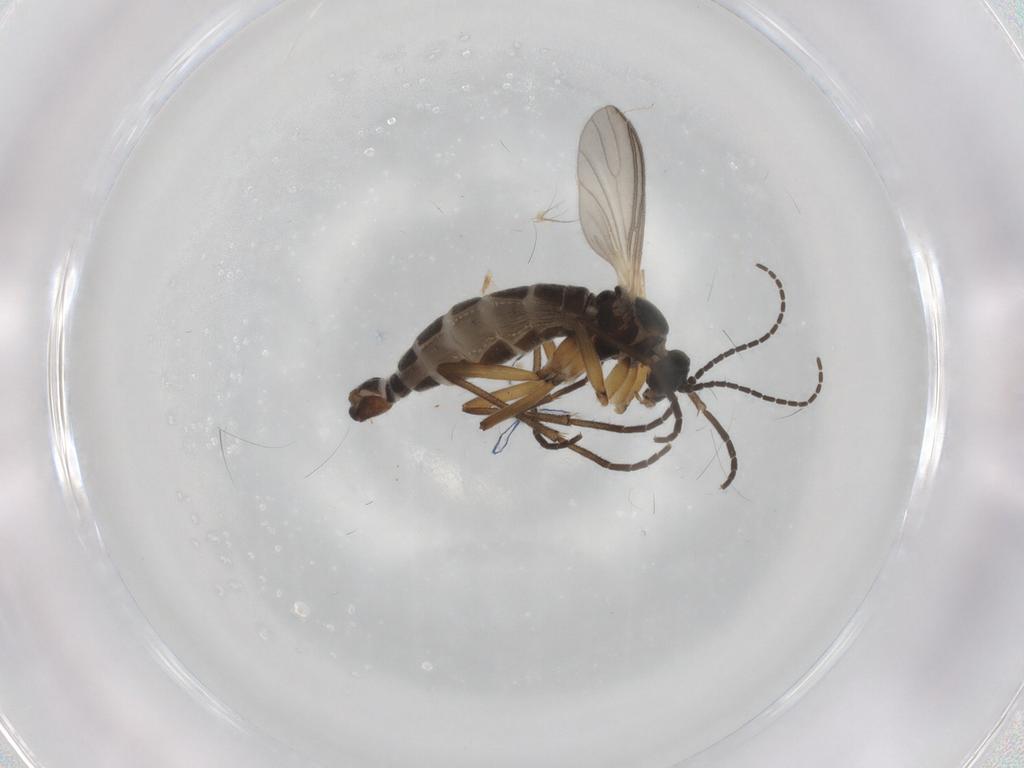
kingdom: Animalia
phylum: Arthropoda
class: Insecta
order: Diptera
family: Sciaridae
